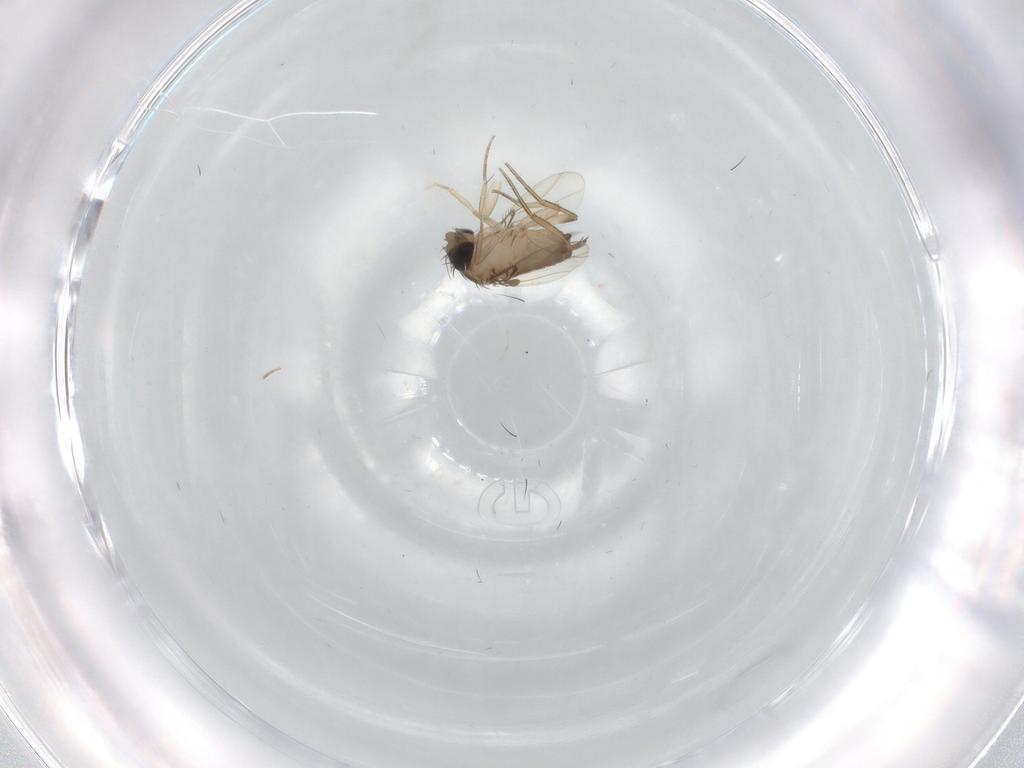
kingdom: Animalia
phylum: Arthropoda
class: Insecta
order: Diptera
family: Phoridae
